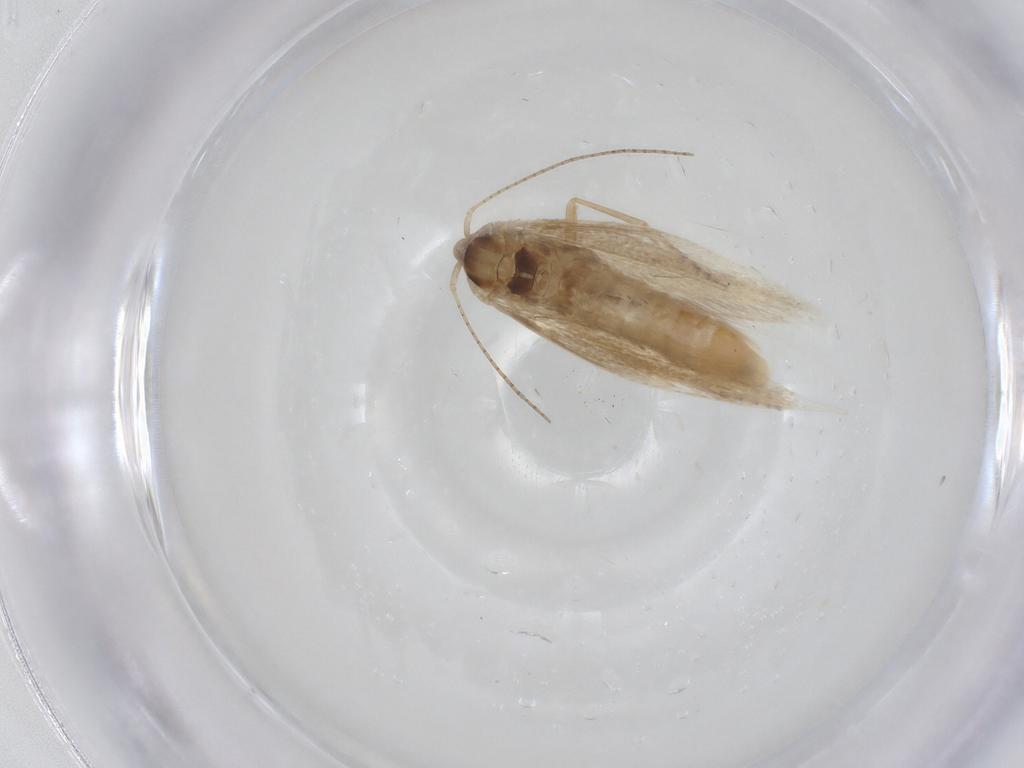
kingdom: Animalia
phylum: Arthropoda
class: Insecta
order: Lepidoptera
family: Bucculatricidae
